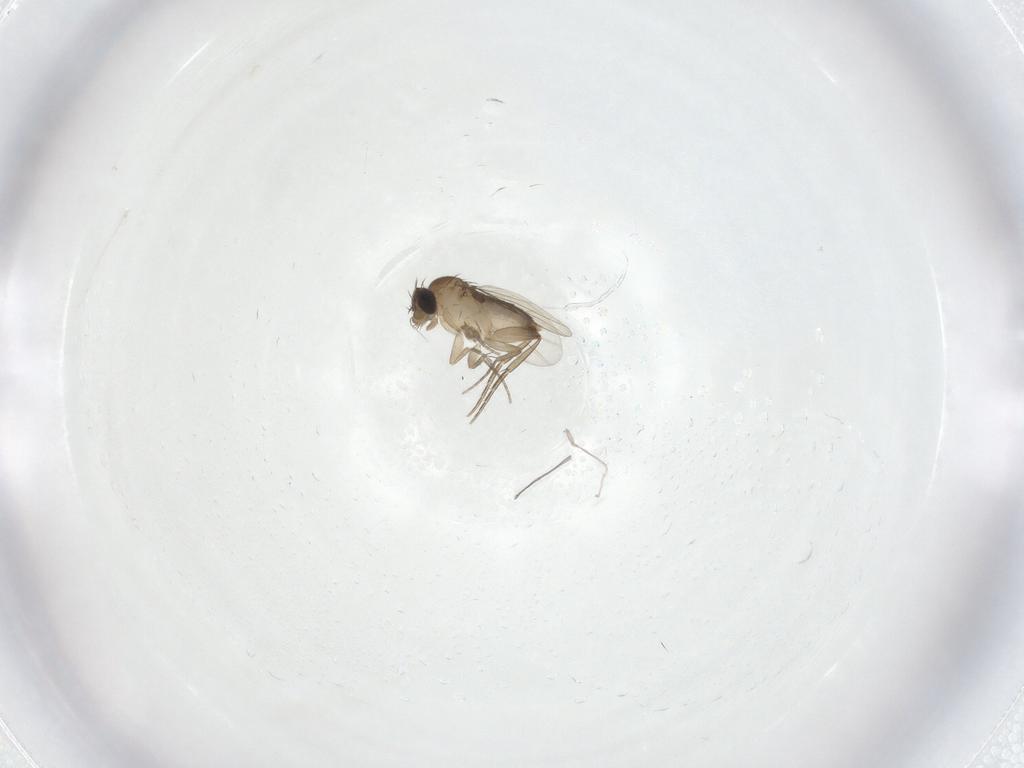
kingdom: Animalia
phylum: Arthropoda
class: Insecta
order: Diptera
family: Phoridae
